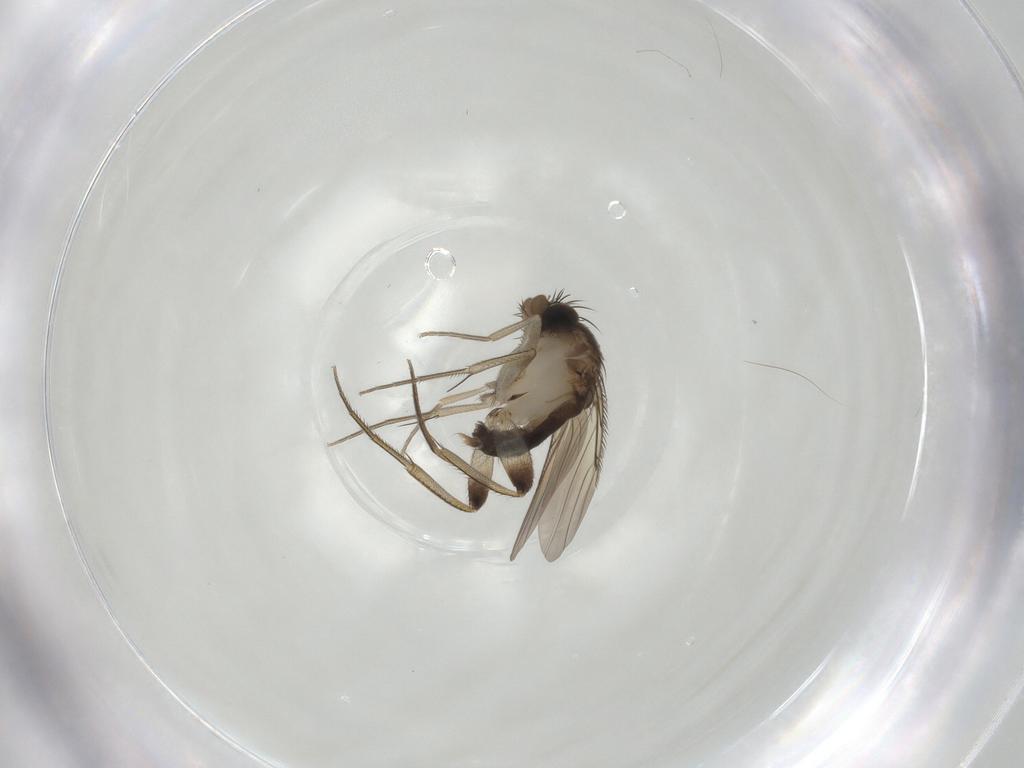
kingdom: Animalia
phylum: Arthropoda
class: Insecta
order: Diptera
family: Phoridae
